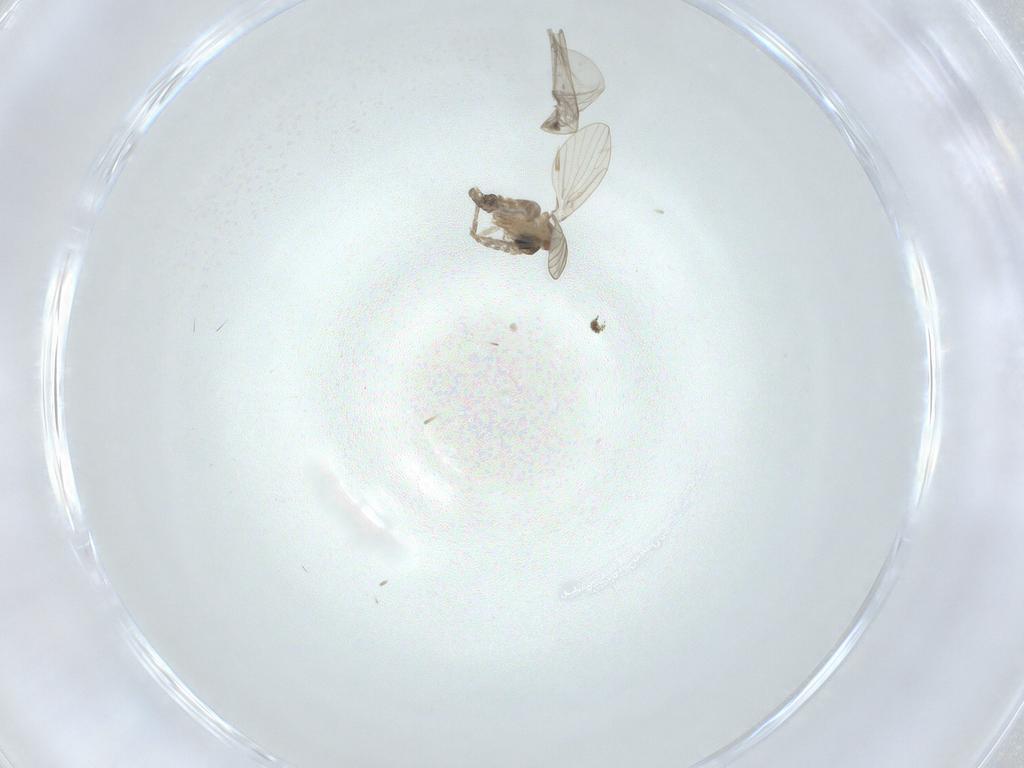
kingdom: Animalia
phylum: Arthropoda
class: Insecta
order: Diptera
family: Phoridae
